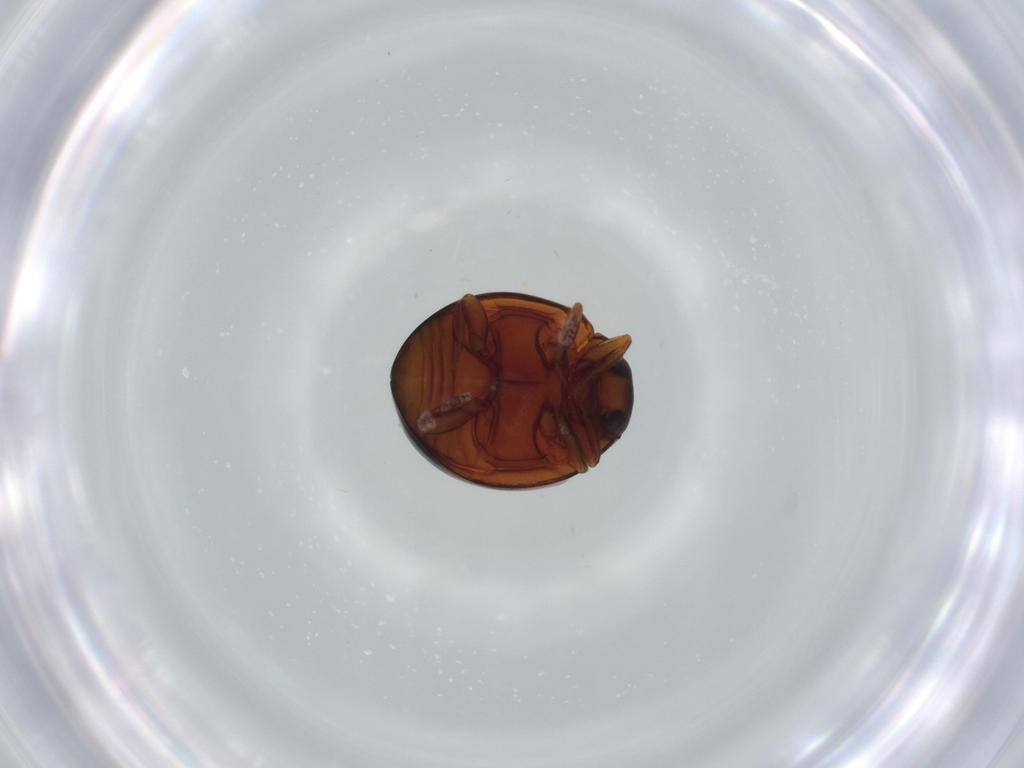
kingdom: Animalia
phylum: Arthropoda
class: Insecta
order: Coleoptera
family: Coccinellidae
